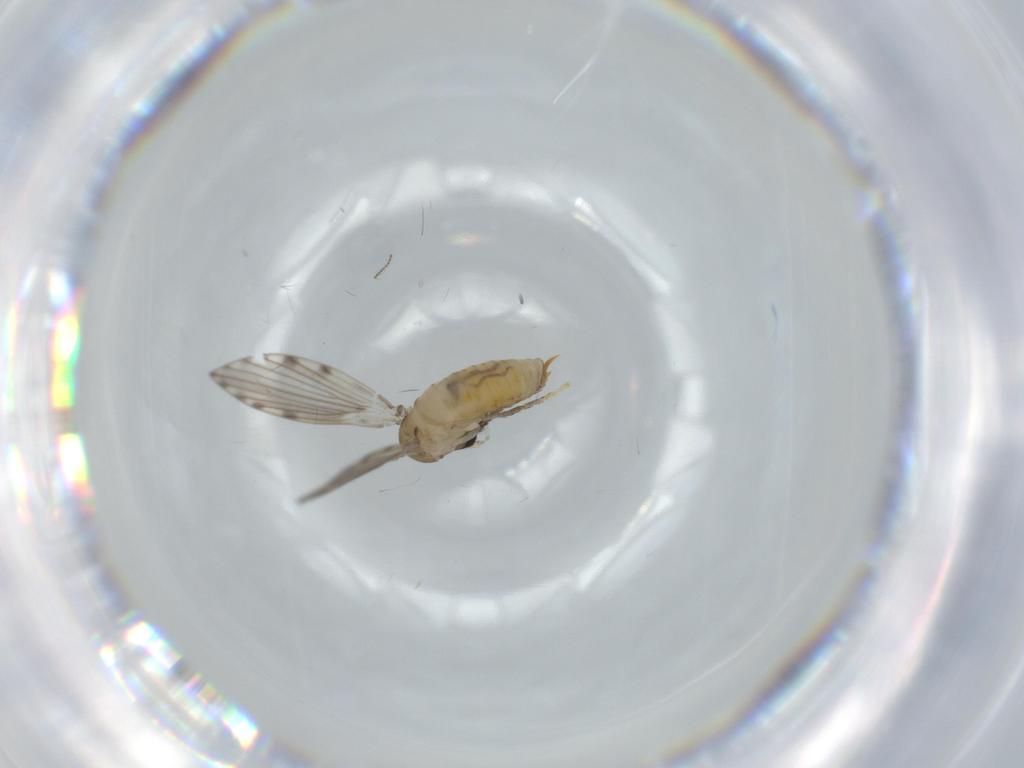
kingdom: Animalia
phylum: Arthropoda
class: Insecta
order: Diptera
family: Psychodidae
